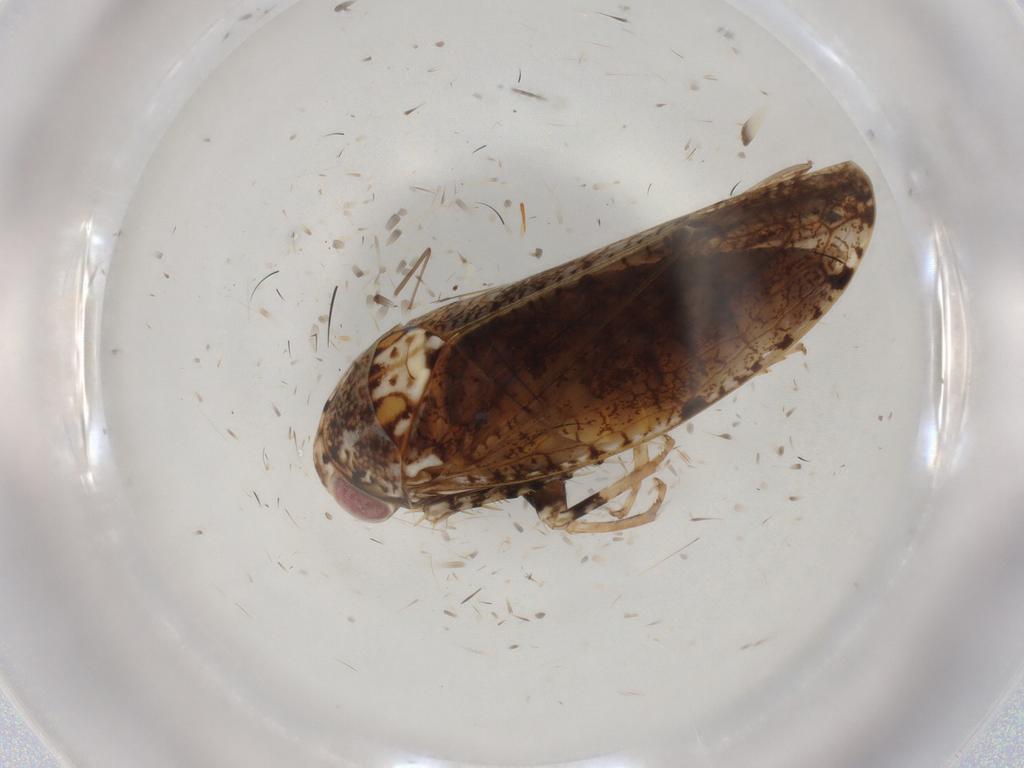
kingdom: Animalia
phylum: Arthropoda
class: Insecta
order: Hemiptera
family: Cicadellidae
